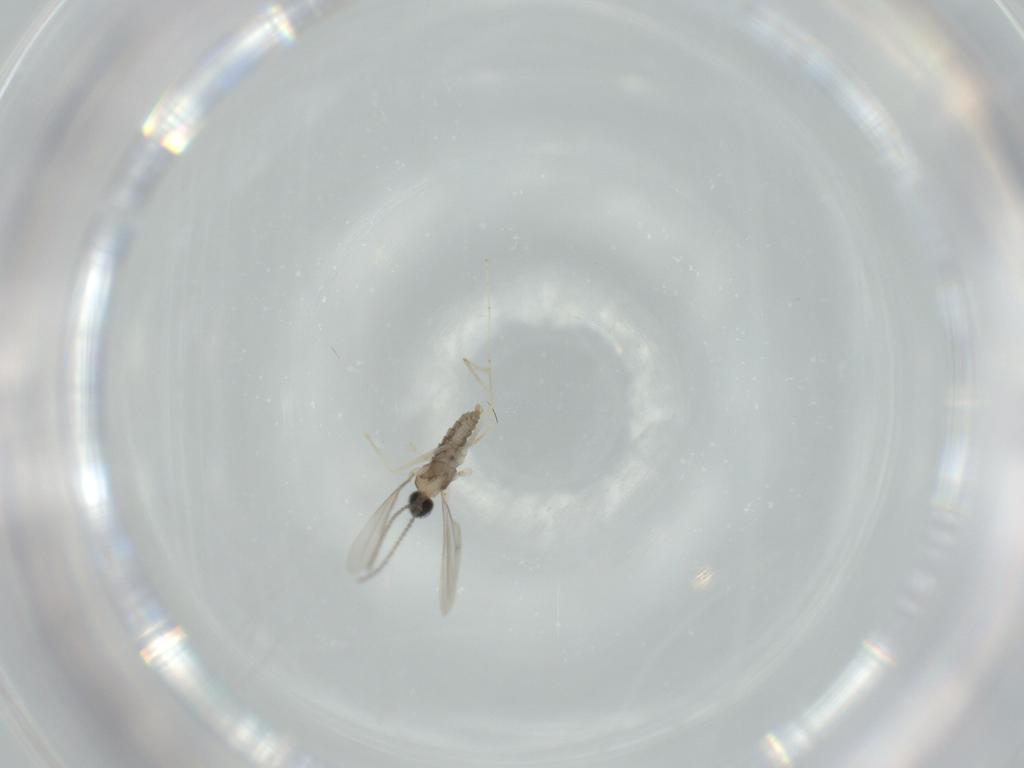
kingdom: Animalia
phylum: Arthropoda
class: Insecta
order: Diptera
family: Cecidomyiidae
